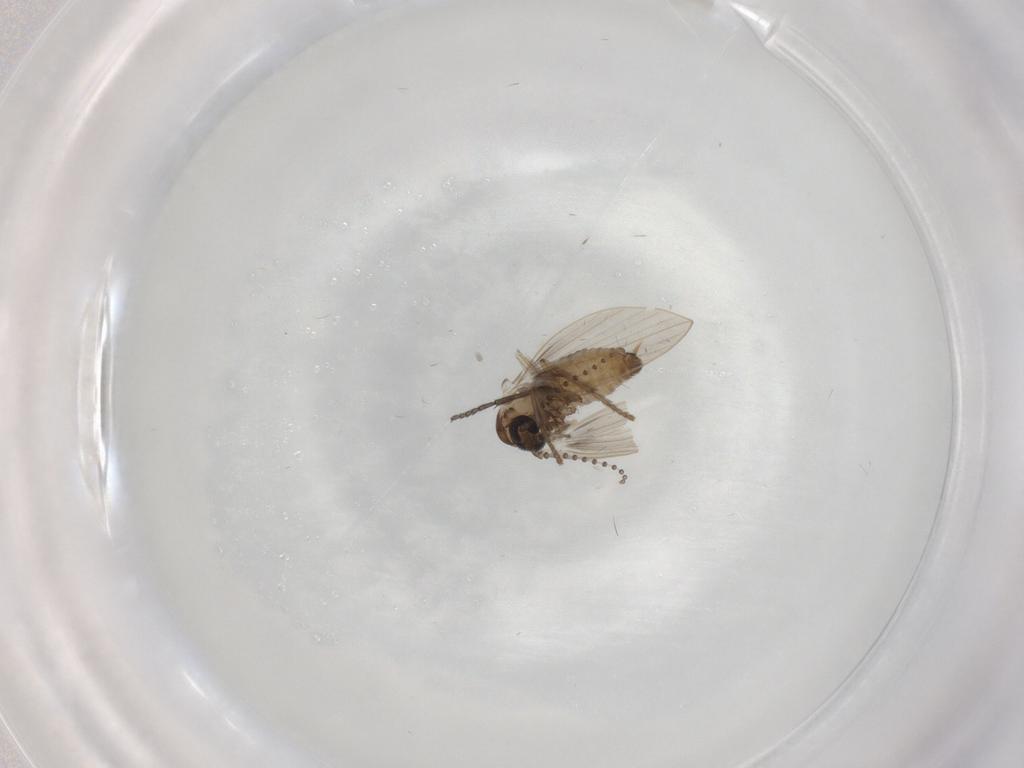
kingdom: Animalia
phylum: Arthropoda
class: Insecta
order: Diptera
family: Psychodidae
